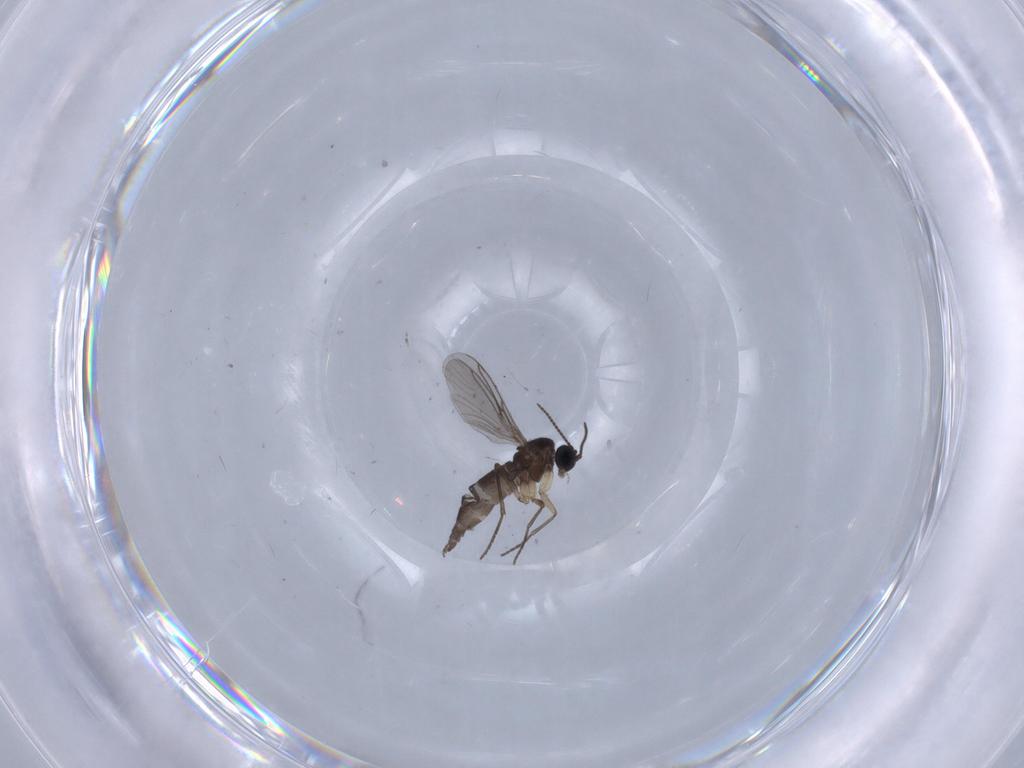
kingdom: Animalia
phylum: Arthropoda
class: Insecta
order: Diptera
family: Sciaridae
